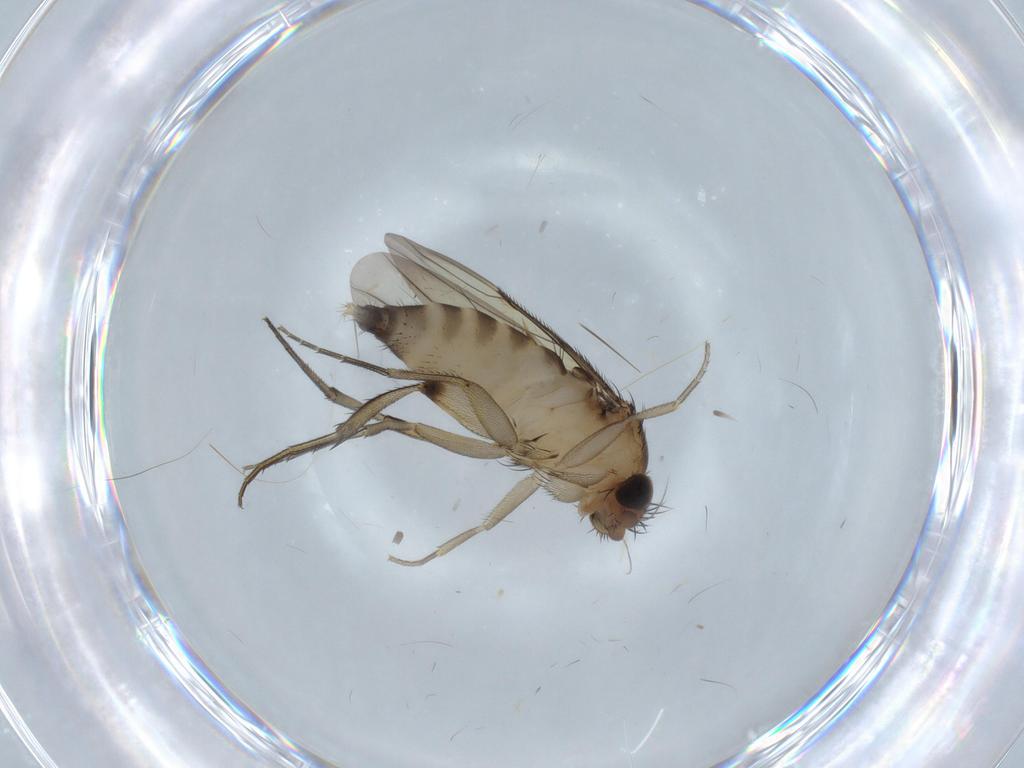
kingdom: Animalia
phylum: Arthropoda
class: Insecta
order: Diptera
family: Phoridae
